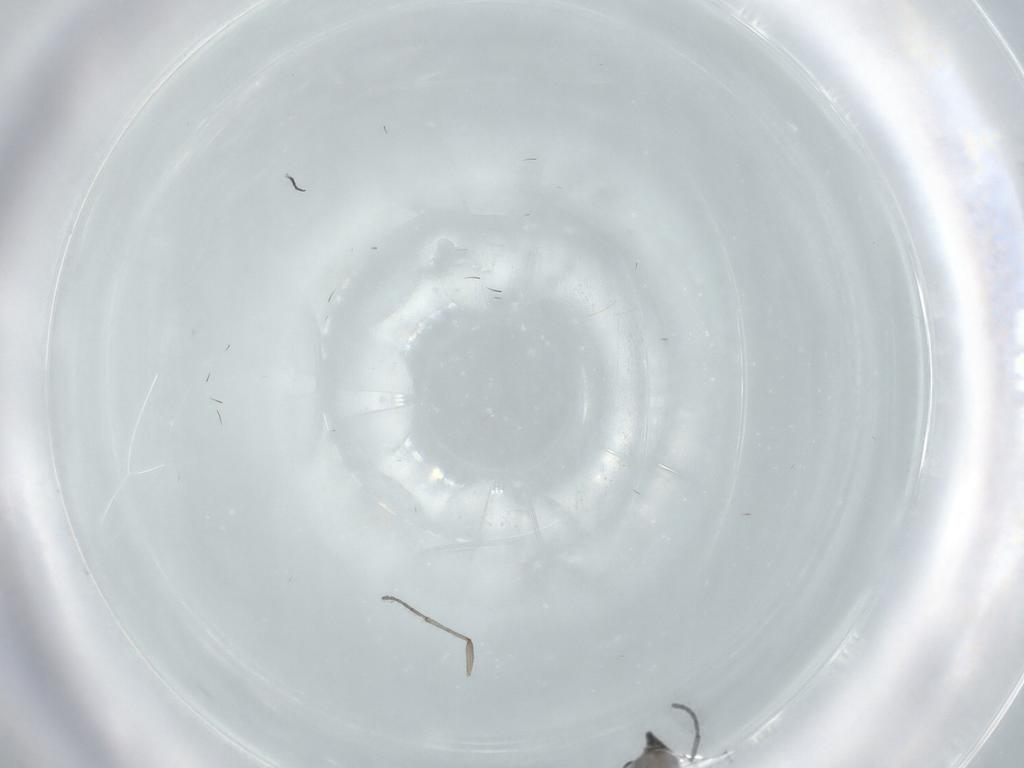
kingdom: Animalia
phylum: Arthropoda
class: Insecta
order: Diptera
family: Sciaridae
